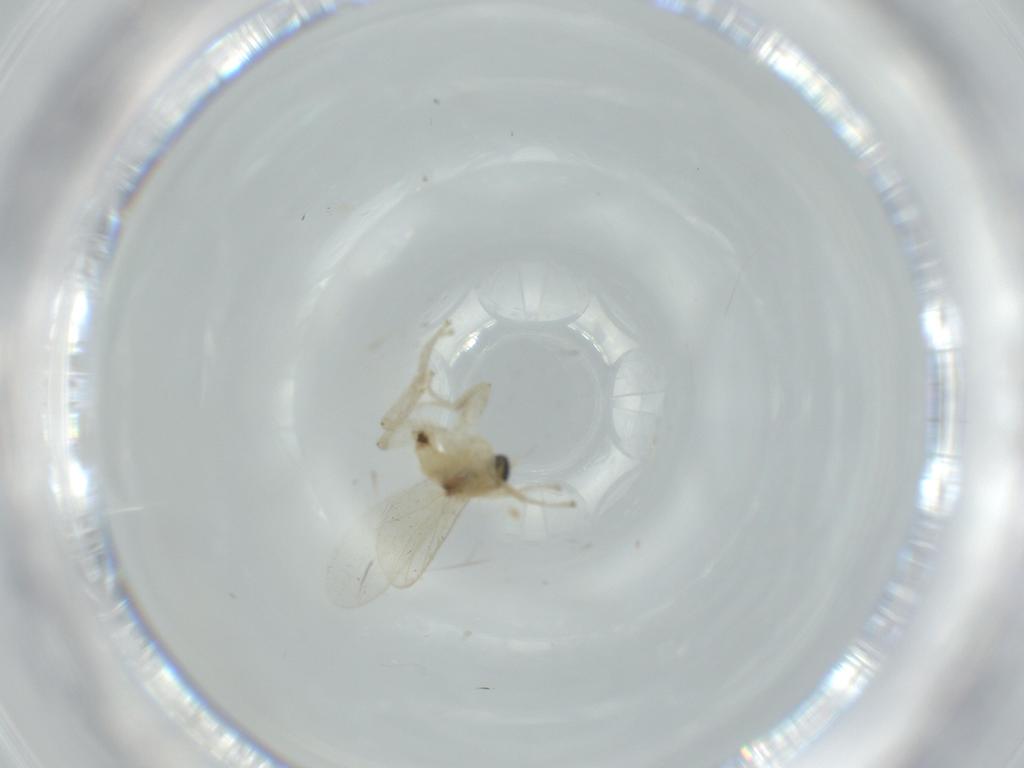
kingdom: Animalia
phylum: Arthropoda
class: Insecta
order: Diptera
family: Hybotidae
